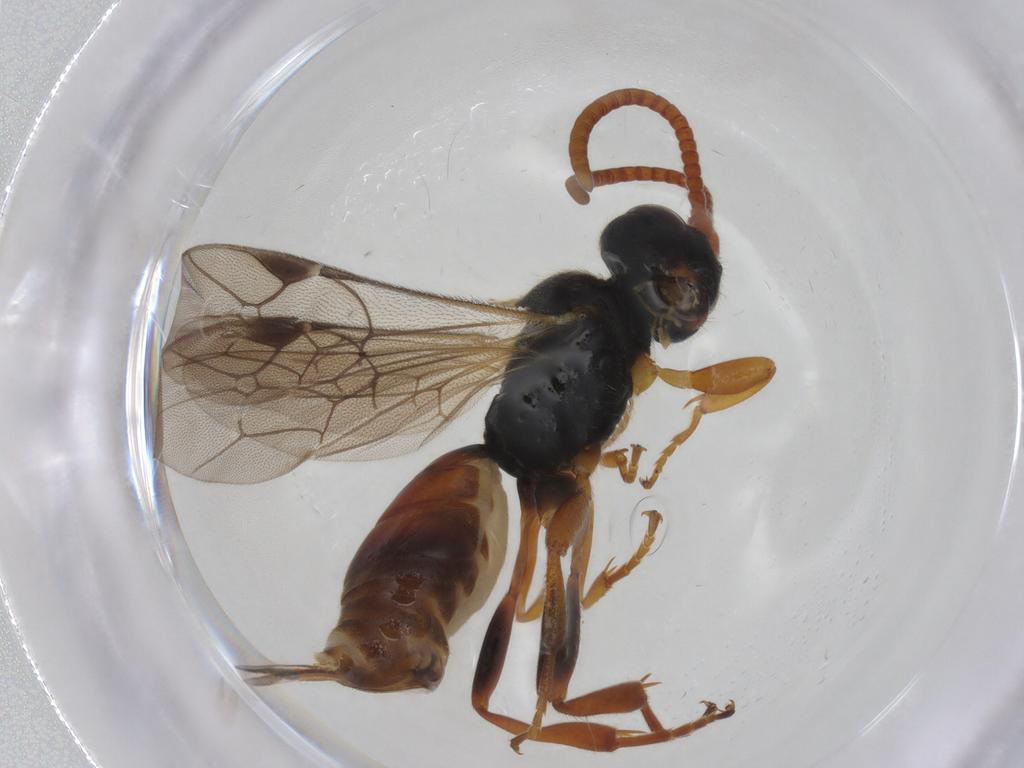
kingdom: Animalia
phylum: Arthropoda
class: Insecta
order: Hymenoptera
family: Ichneumonidae
